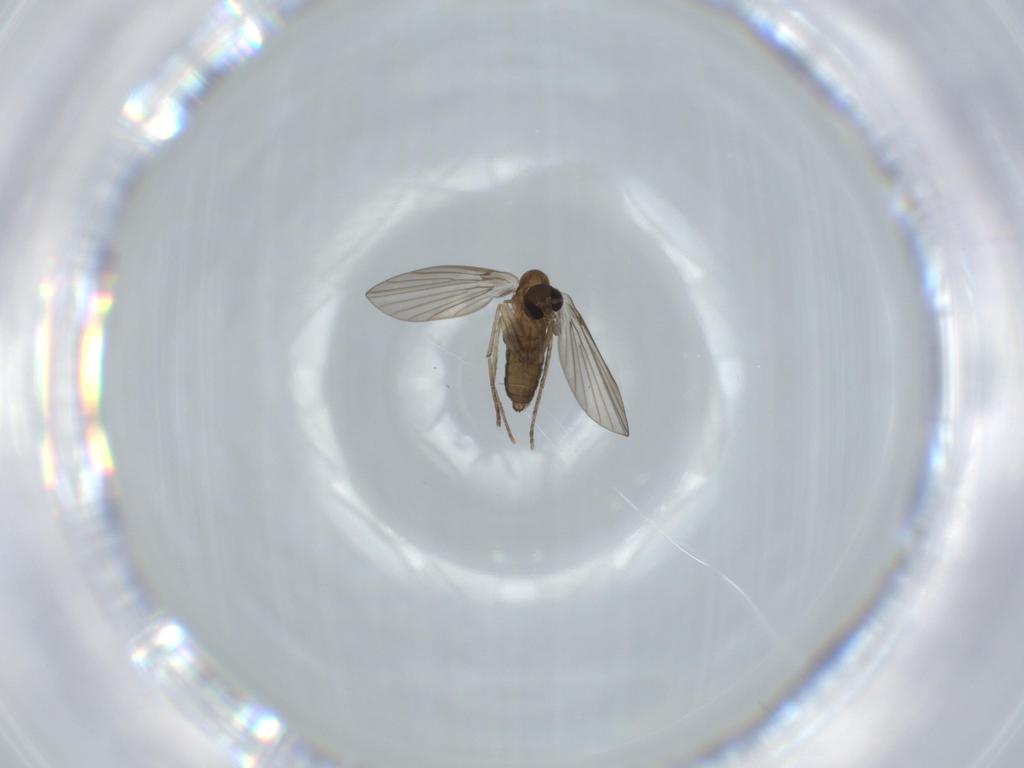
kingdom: Animalia
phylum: Arthropoda
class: Insecta
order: Diptera
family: Psychodidae
